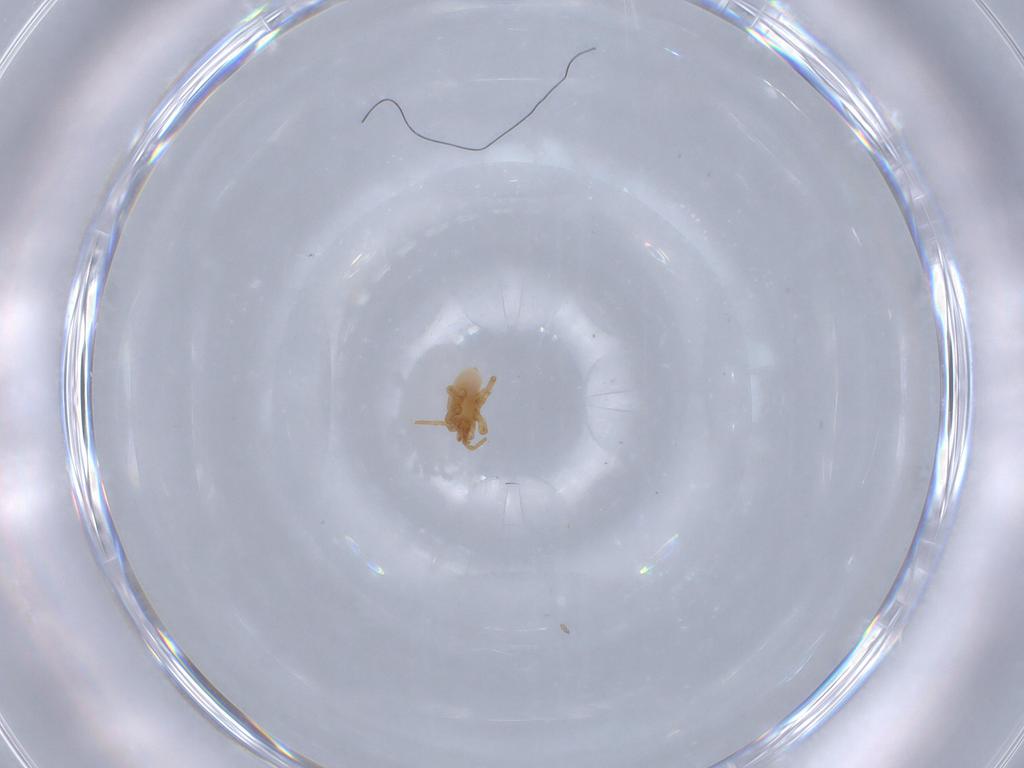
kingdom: Animalia
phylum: Arthropoda
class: Arachnida
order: Mesostigmata
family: Parasitidae
